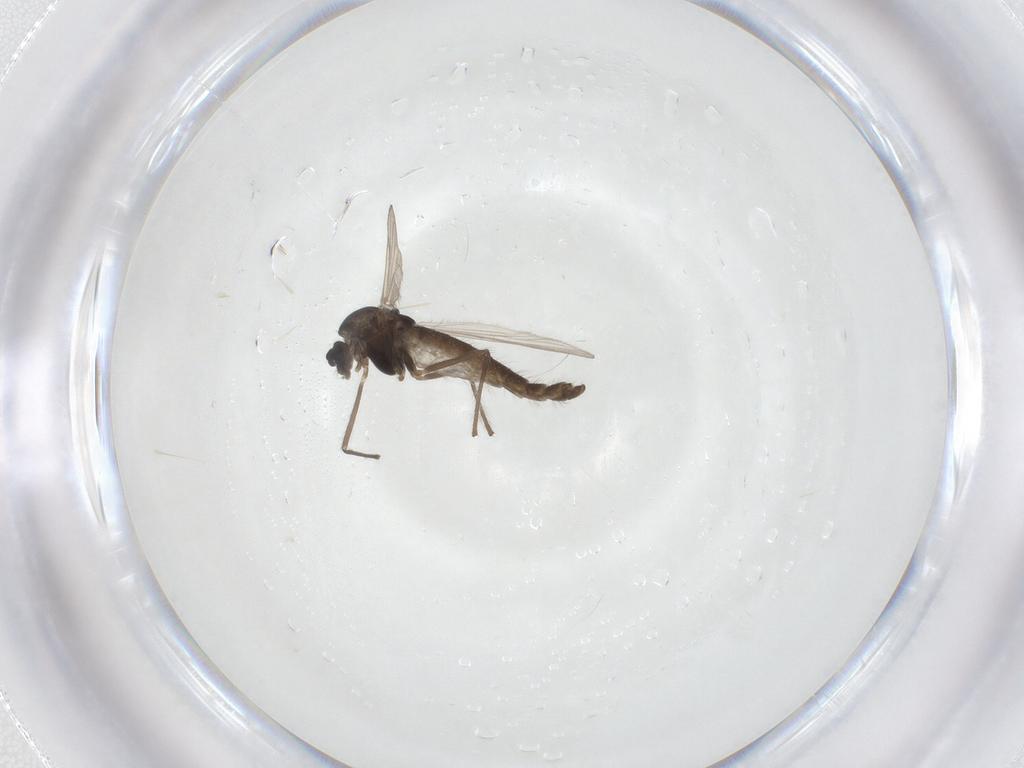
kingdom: Animalia
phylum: Arthropoda
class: Insecta
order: Diptera
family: Chironomidae
